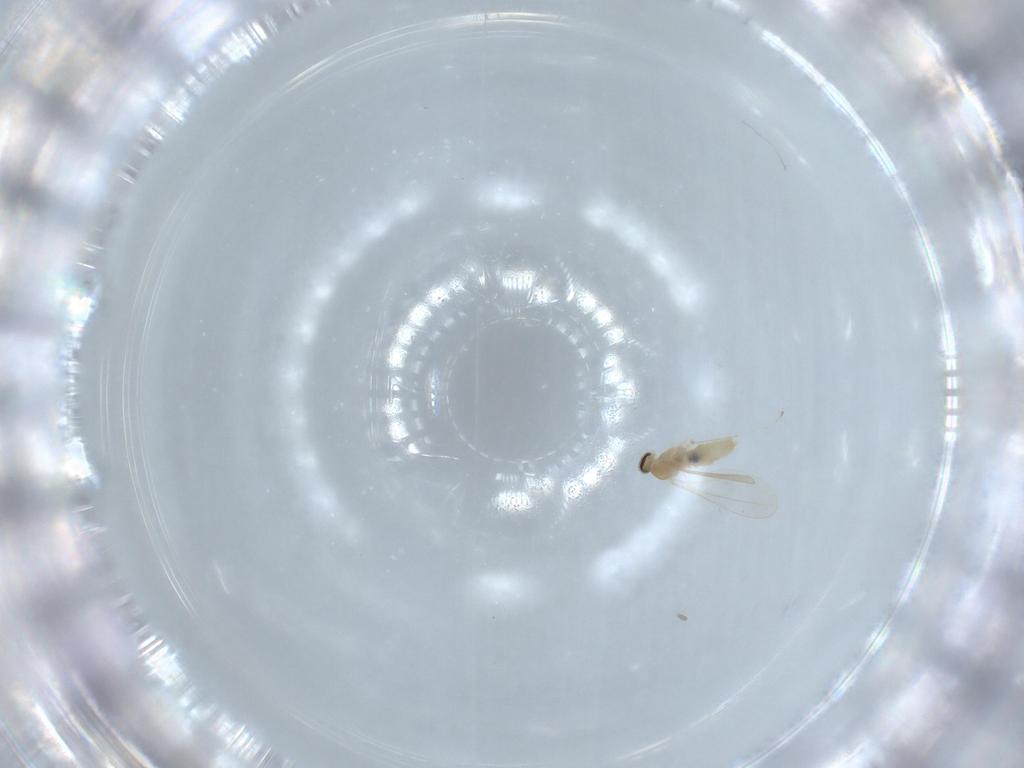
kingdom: Animalia
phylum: Arthropoda
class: Insecta
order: Diptera
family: Cecidomyiidae
